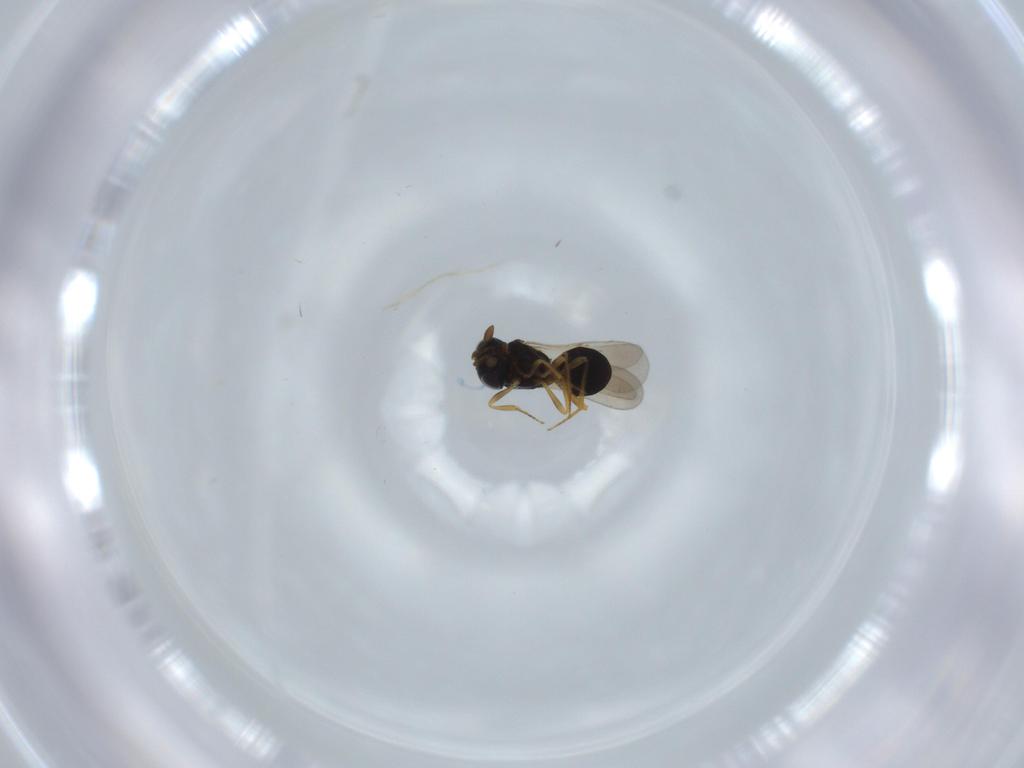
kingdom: Animalia
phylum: Arthropoda
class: Insecta
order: Hymenoptera
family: Scelionidae
